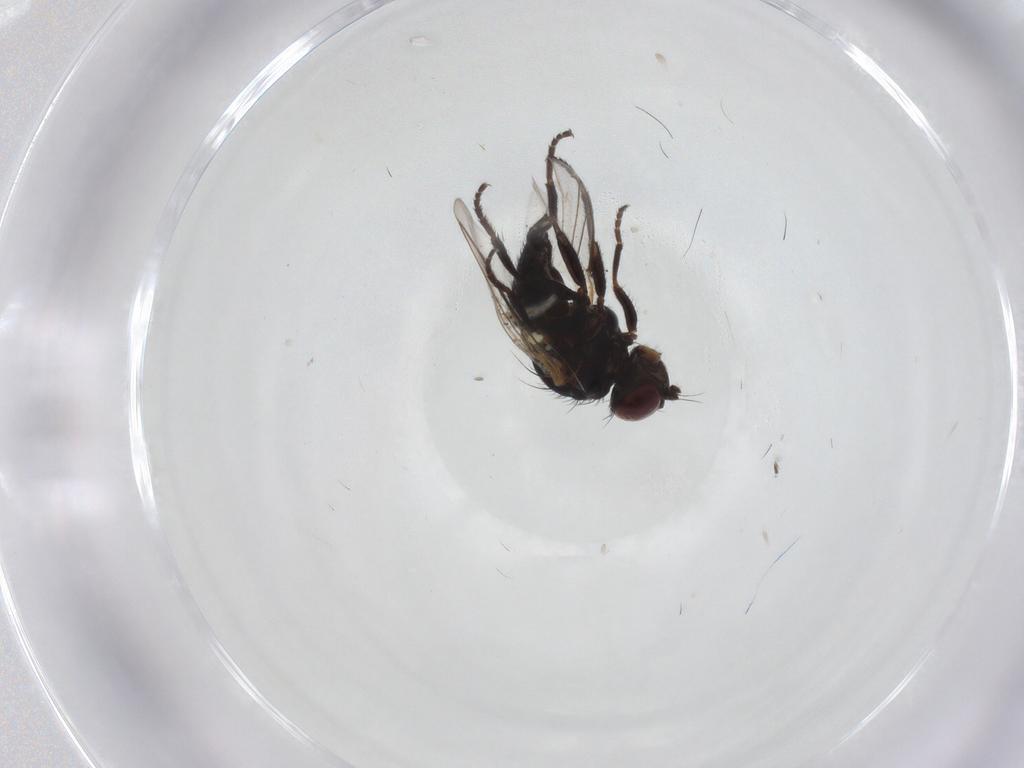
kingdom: Animalia
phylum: Arthropoda
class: Insecta
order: Diptera
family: Agromyzidae
